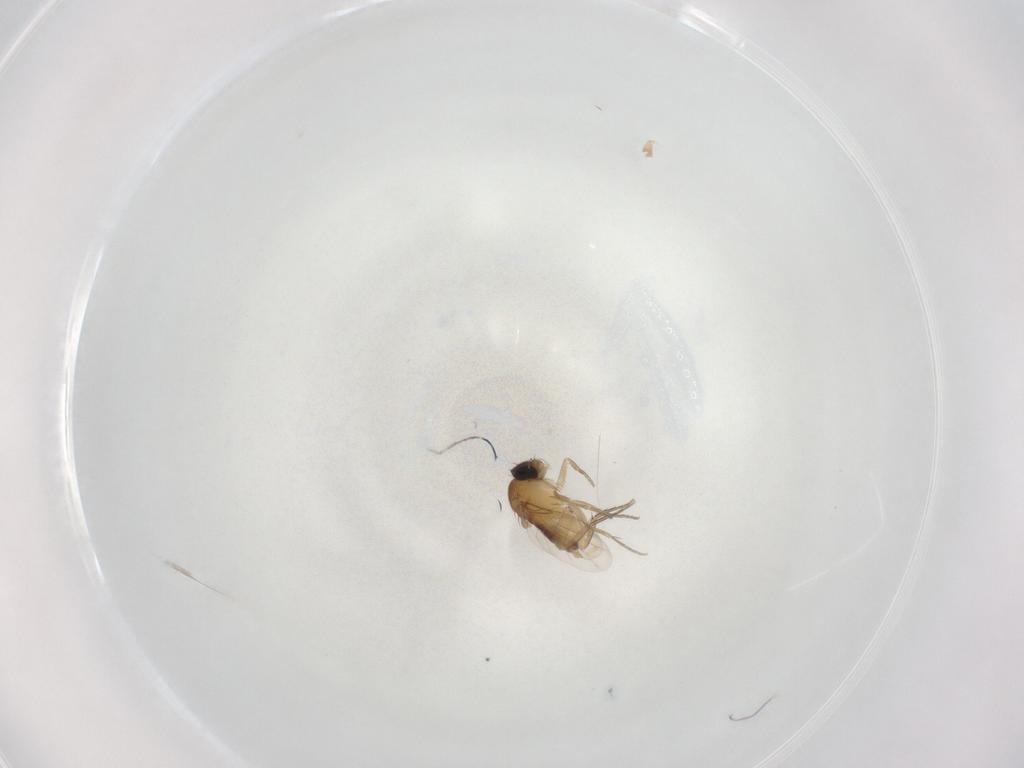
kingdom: Animalia
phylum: Arthropoda
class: Insecta
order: Diptera
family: Phoridae
